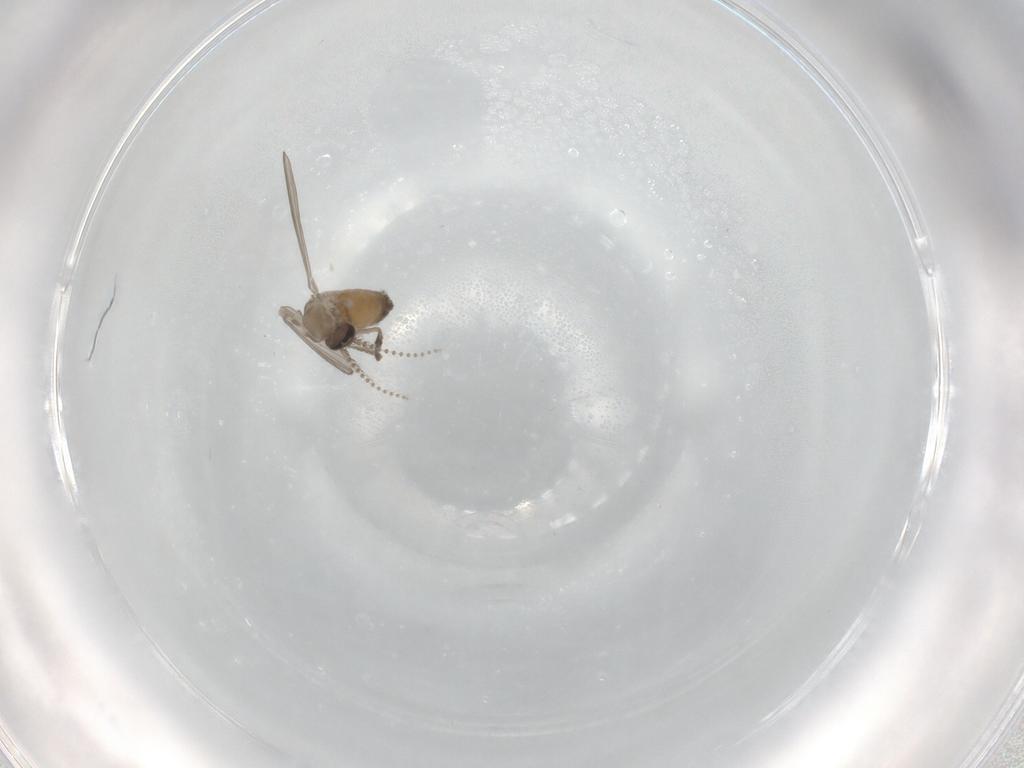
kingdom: Animalia
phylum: Arthropoda
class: Insecta
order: Diptera
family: Psychodidae
